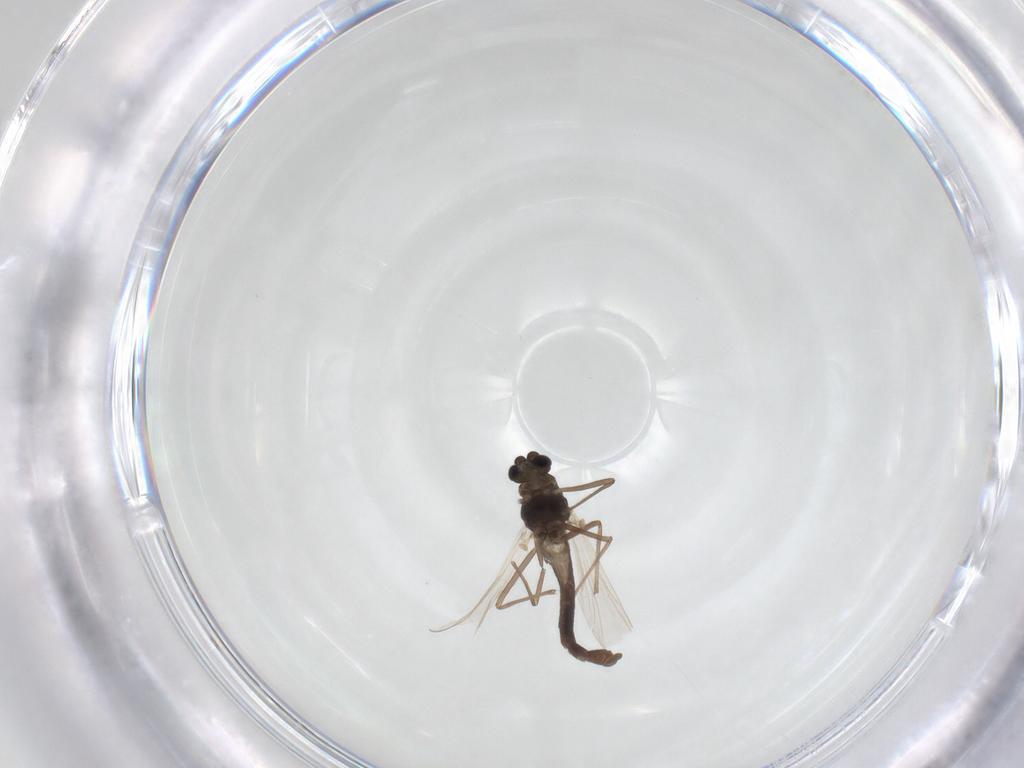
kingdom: Animalia
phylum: Arthropoda
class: Insecta
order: Diptera
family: Chironomidae
